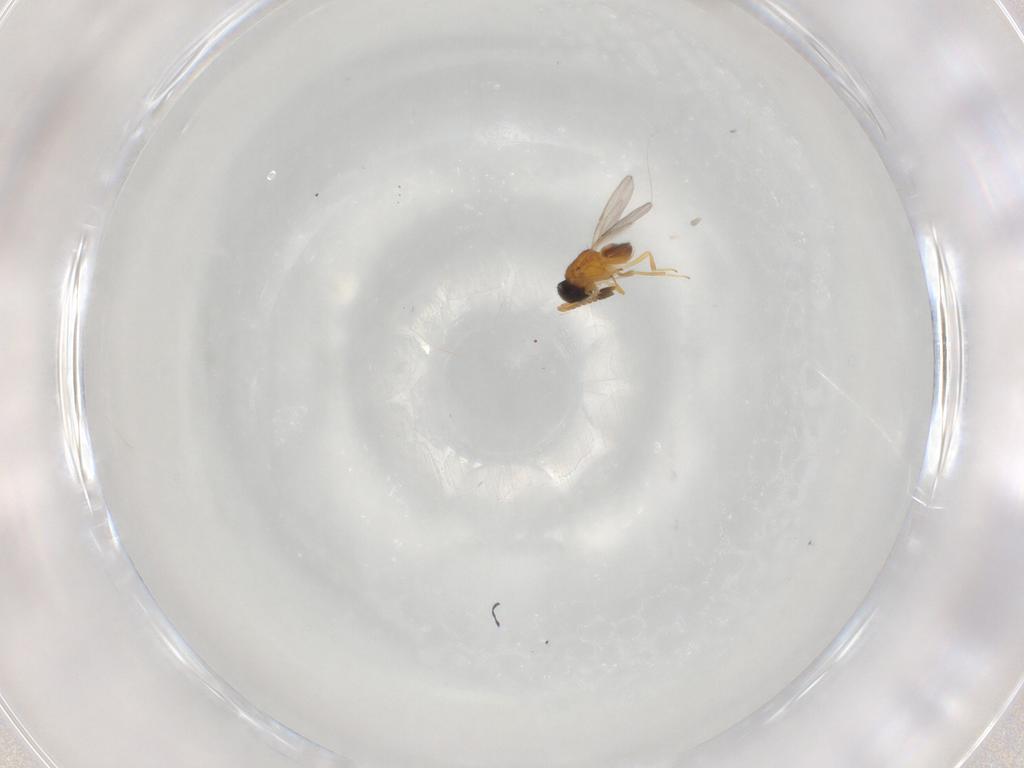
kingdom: Animalia
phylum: Arthropoda
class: Insecta
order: Hymenoptera
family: Scelionidae
